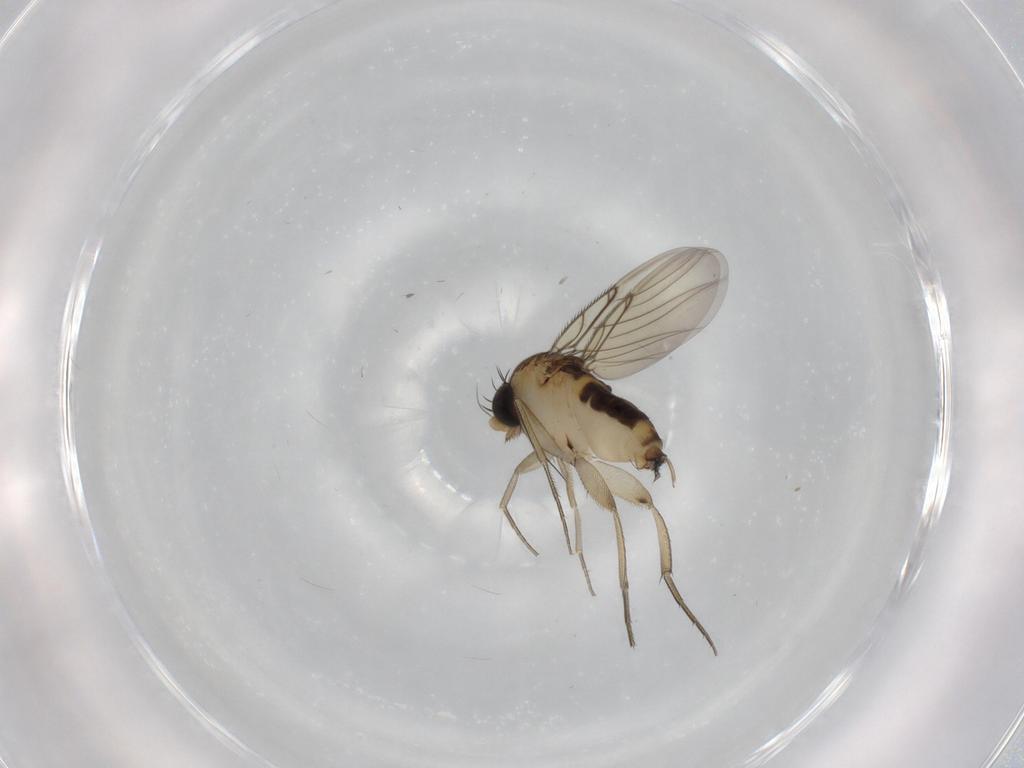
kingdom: Animalia
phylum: Arthropoda
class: Insecta
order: Diptera
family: Phoridae
